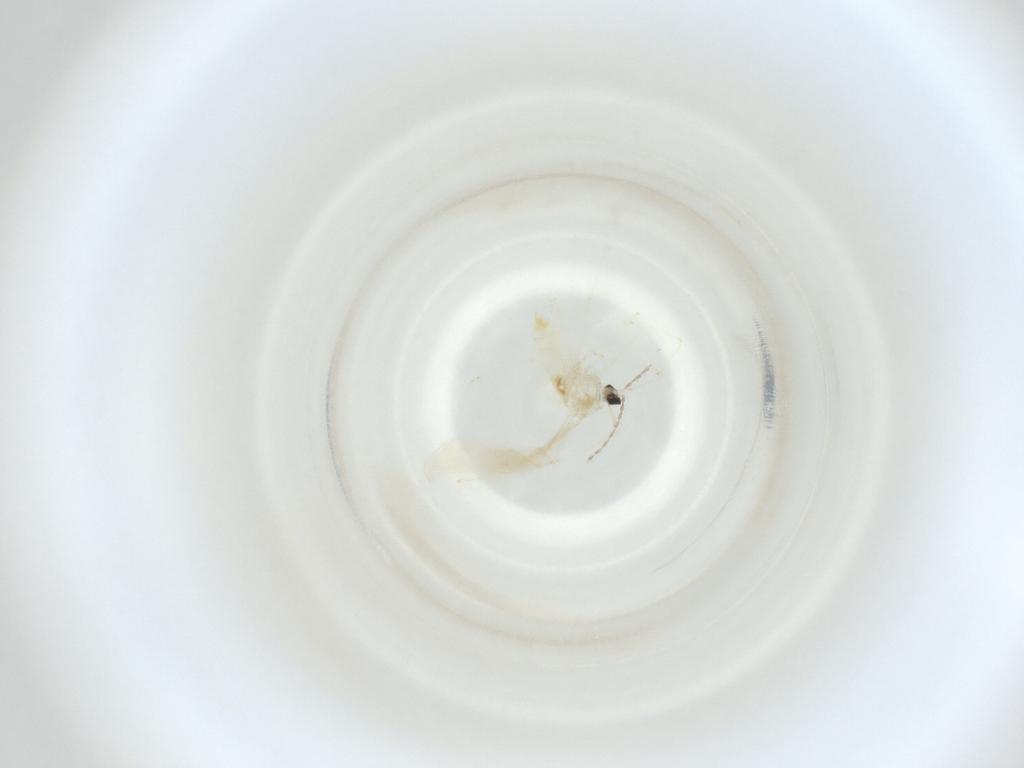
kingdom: Animalia
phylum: Arthropoda
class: Insecta
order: Diptera
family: Cecidomyiidae
